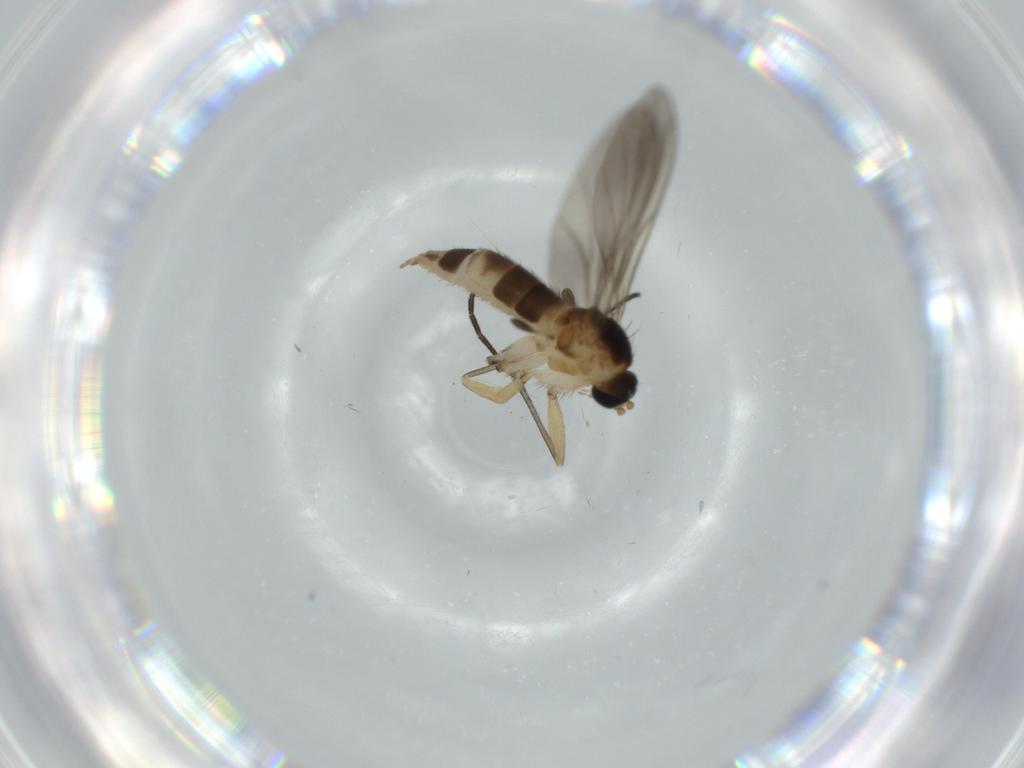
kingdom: Animalia
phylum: Arthropoda
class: Insecta
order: Diptera
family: Sciaridae
